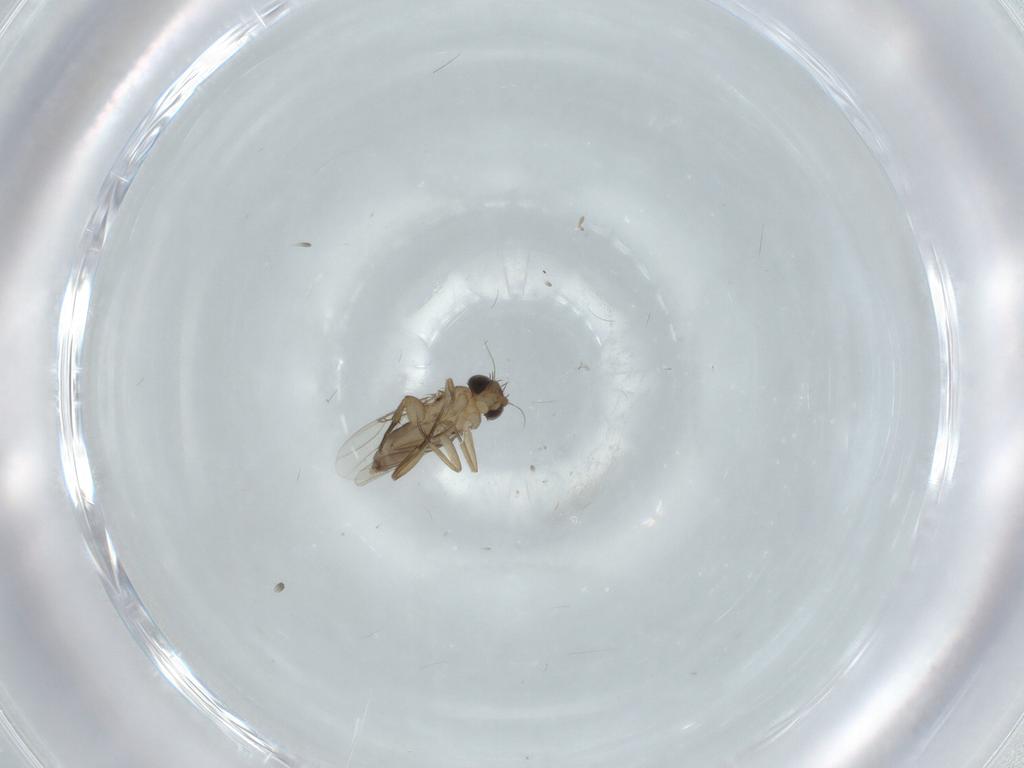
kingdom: Animalia
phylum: Arthropoda
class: Insecta
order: Diptera
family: Phoridae
